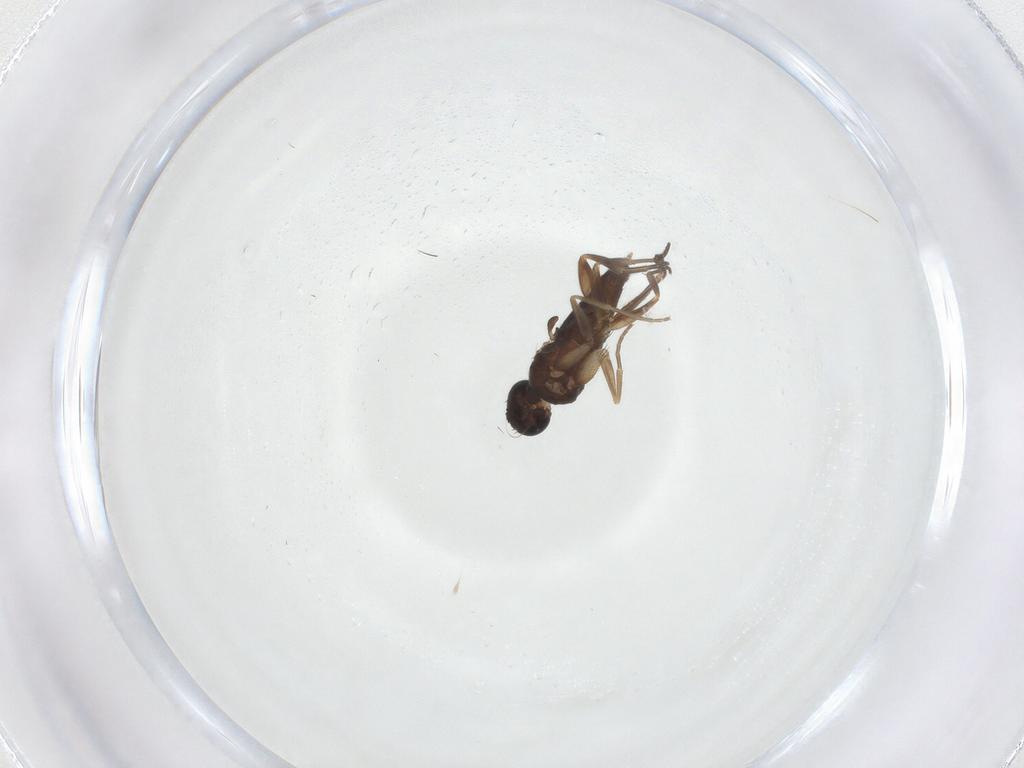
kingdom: Animalia
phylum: Arthropoda
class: Insecta
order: Diptera
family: Phoridae
